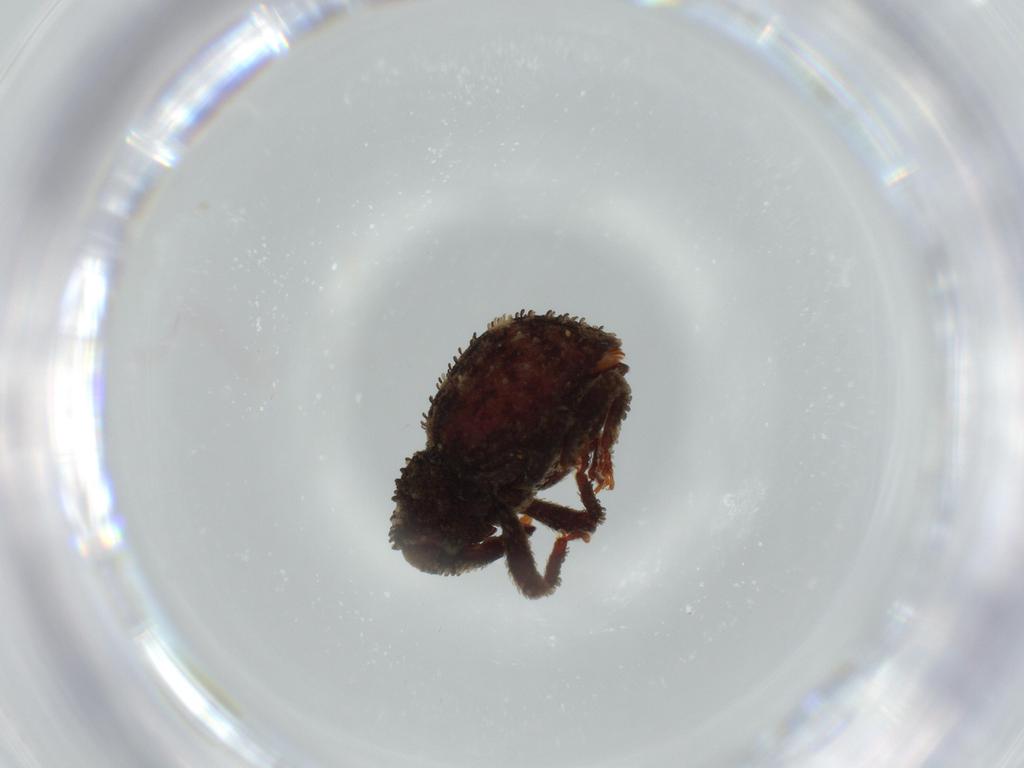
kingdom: Animalia
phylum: Arthropoda
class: Insecta
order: Coleoptera
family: Curculionidae
